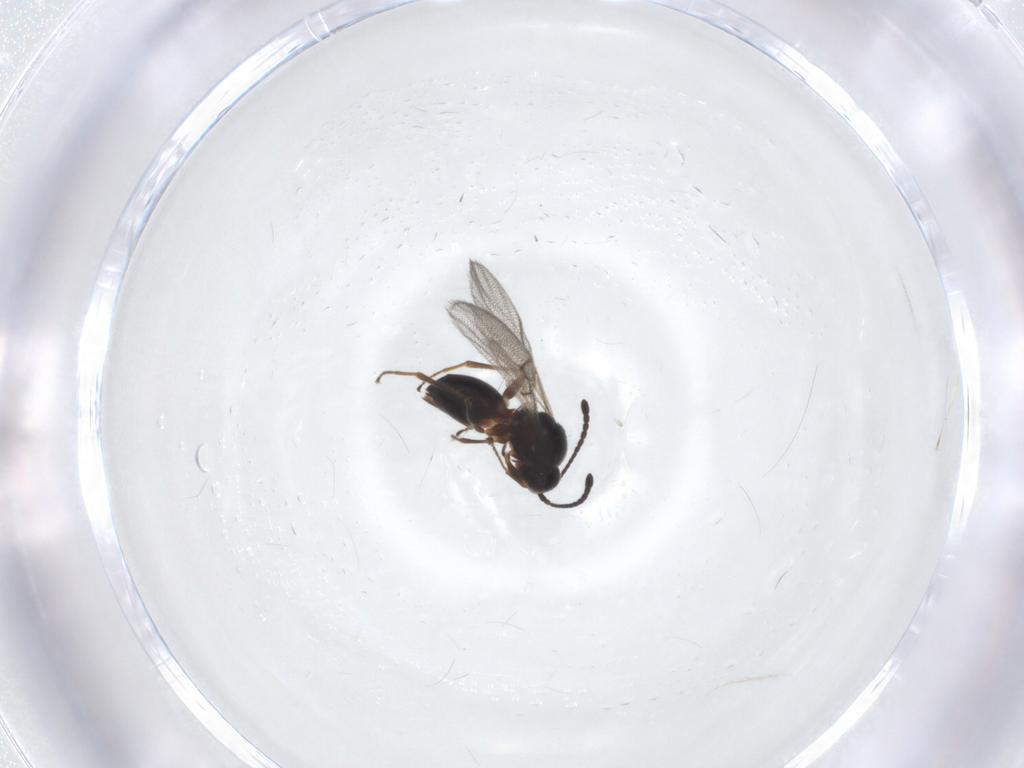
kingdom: Animalia
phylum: Arthropoda
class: Insecta
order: Hymenoptera
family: Figitidae
